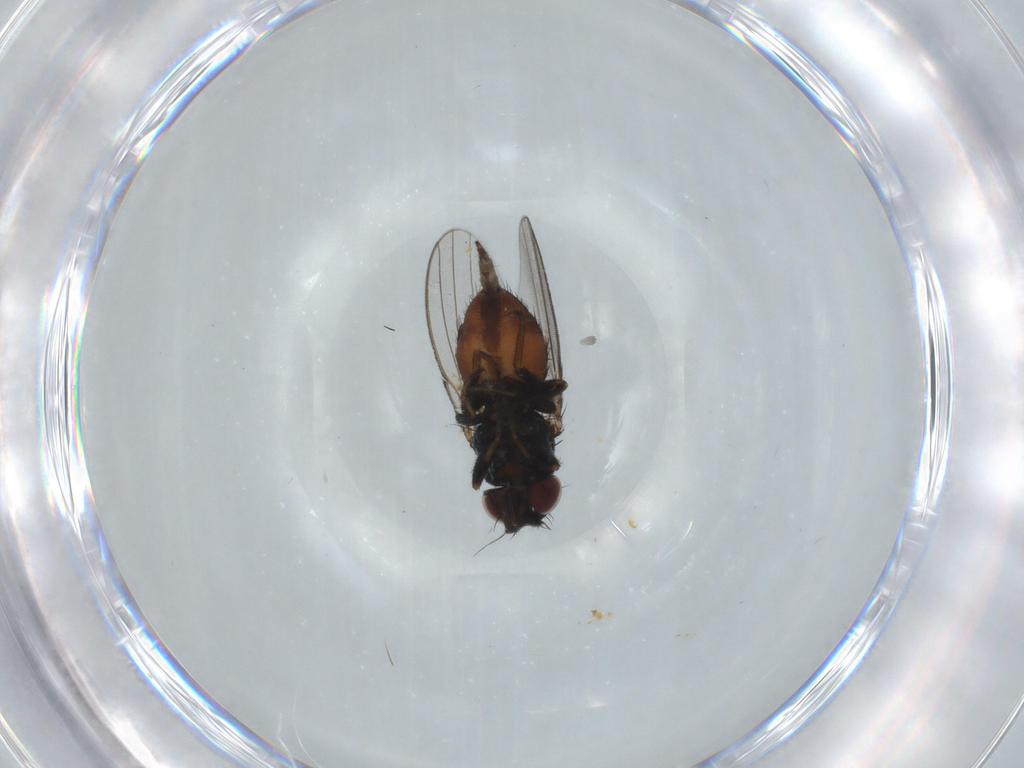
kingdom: Animalia
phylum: Arthropoda
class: Insecta
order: Diptera
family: Milichiidae
